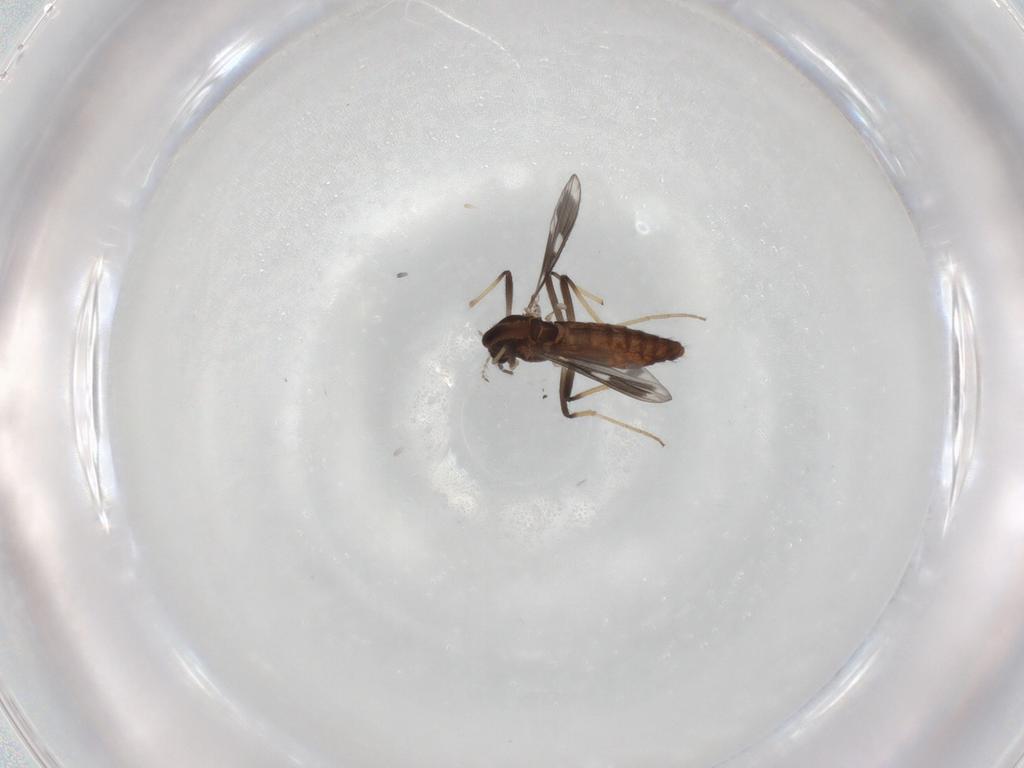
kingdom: Animalia
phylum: Arthropoda
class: Insecta
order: Diptera
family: Chironomidae
